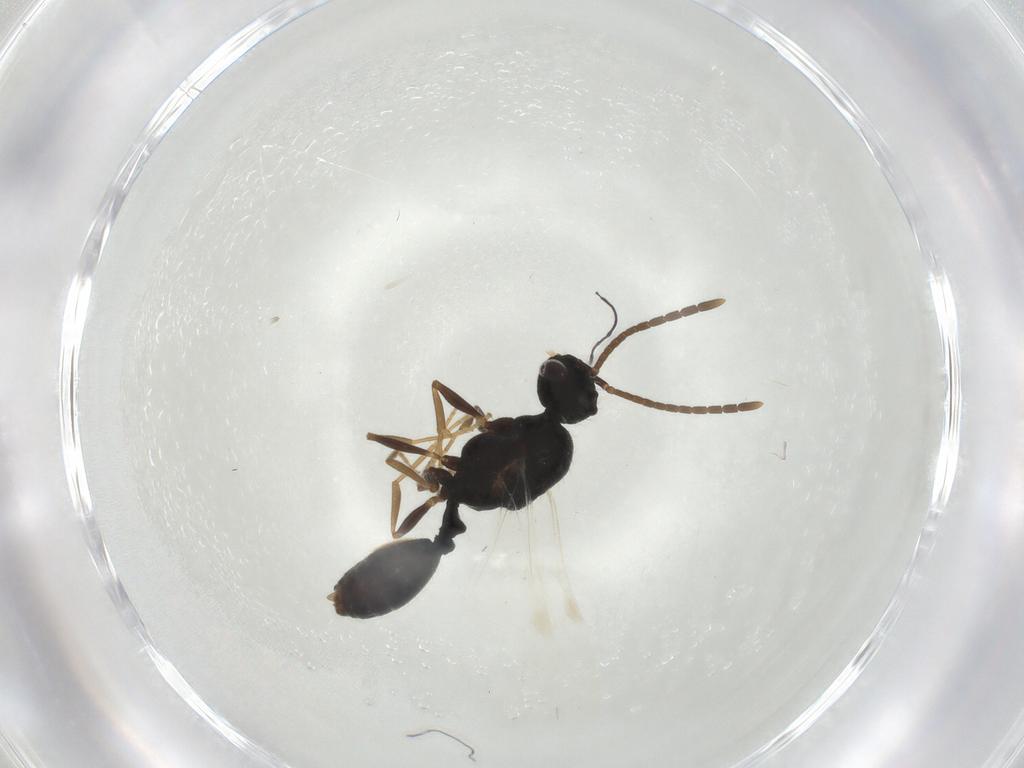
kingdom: Animalia
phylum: Arthropoda
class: Insecta
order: Hymenoptera
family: Formicidae
